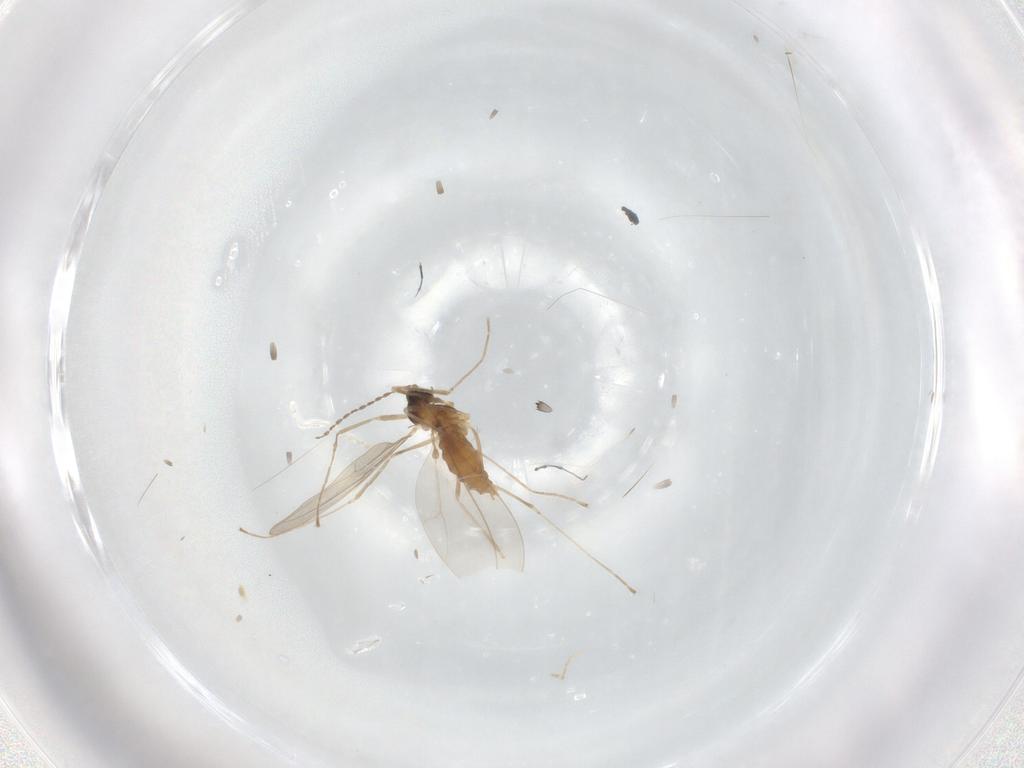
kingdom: Animalia
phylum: Arthropoda
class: Insecta
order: Diptera
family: Cecidomyiidae
